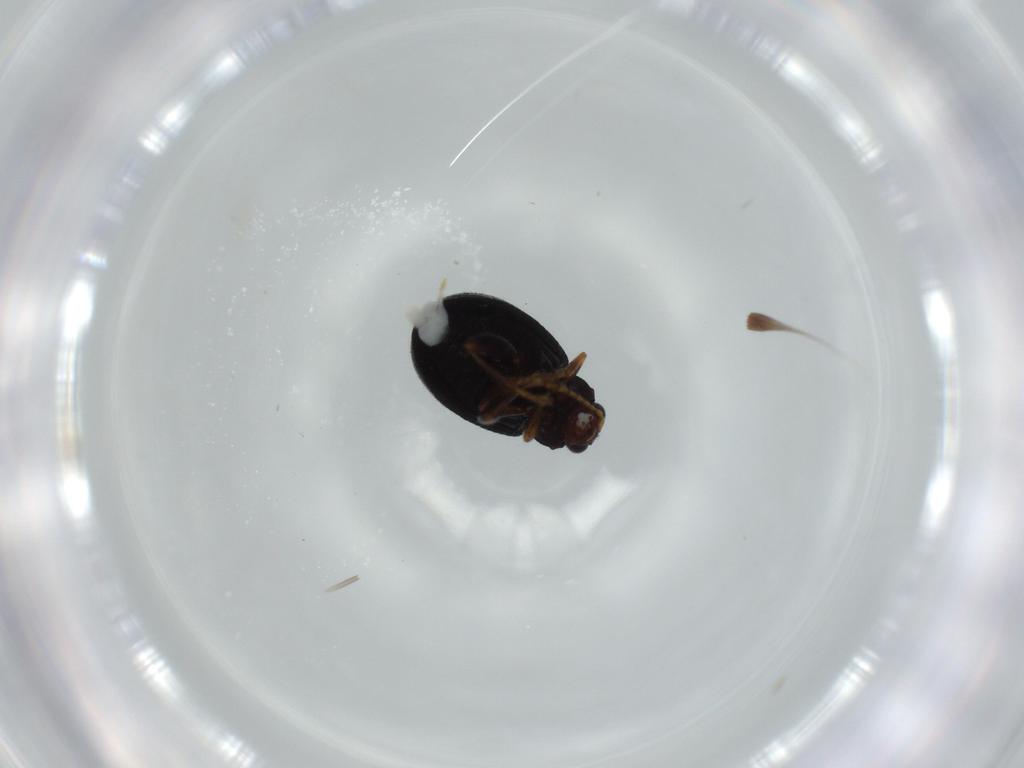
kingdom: Animalia
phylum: Arthropoda
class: Insecta
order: Coleoptera
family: Chrysomelidae
